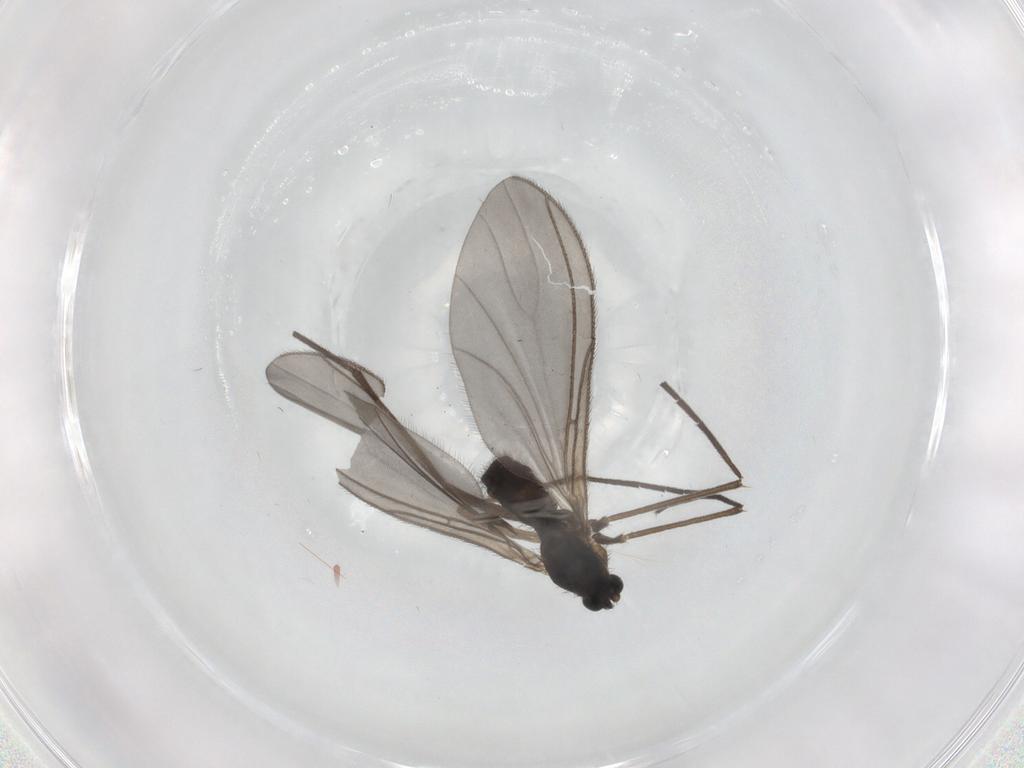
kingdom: Animalia
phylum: Arthropoda
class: Insecta
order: Diptera
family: Sciaridae
